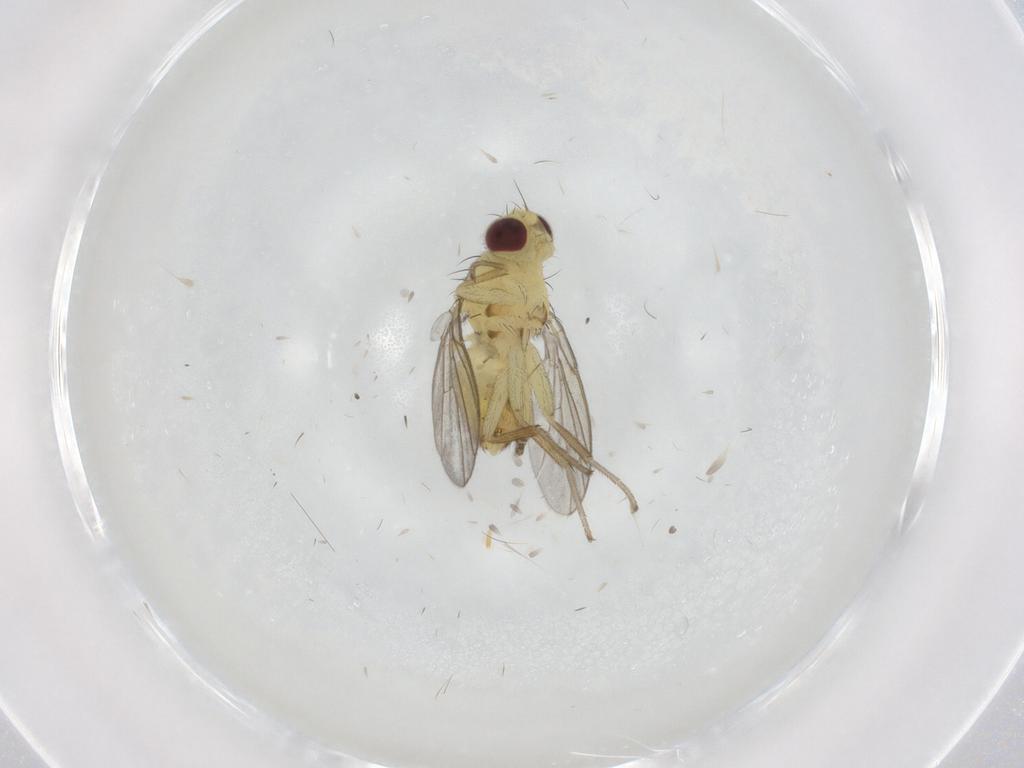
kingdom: Animalia
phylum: Arthropoda
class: Insecta
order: Diptera
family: Agromyzidae
